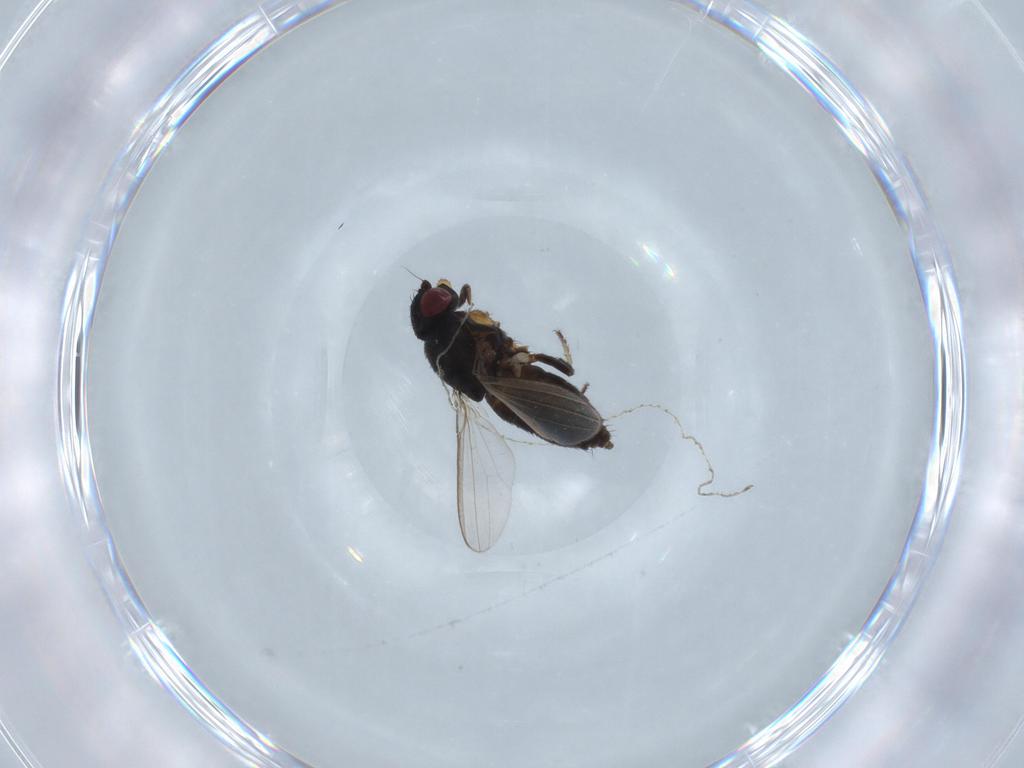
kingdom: Animalia
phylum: Arthropoda
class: Insecta
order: Diptera
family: Milichiidae
